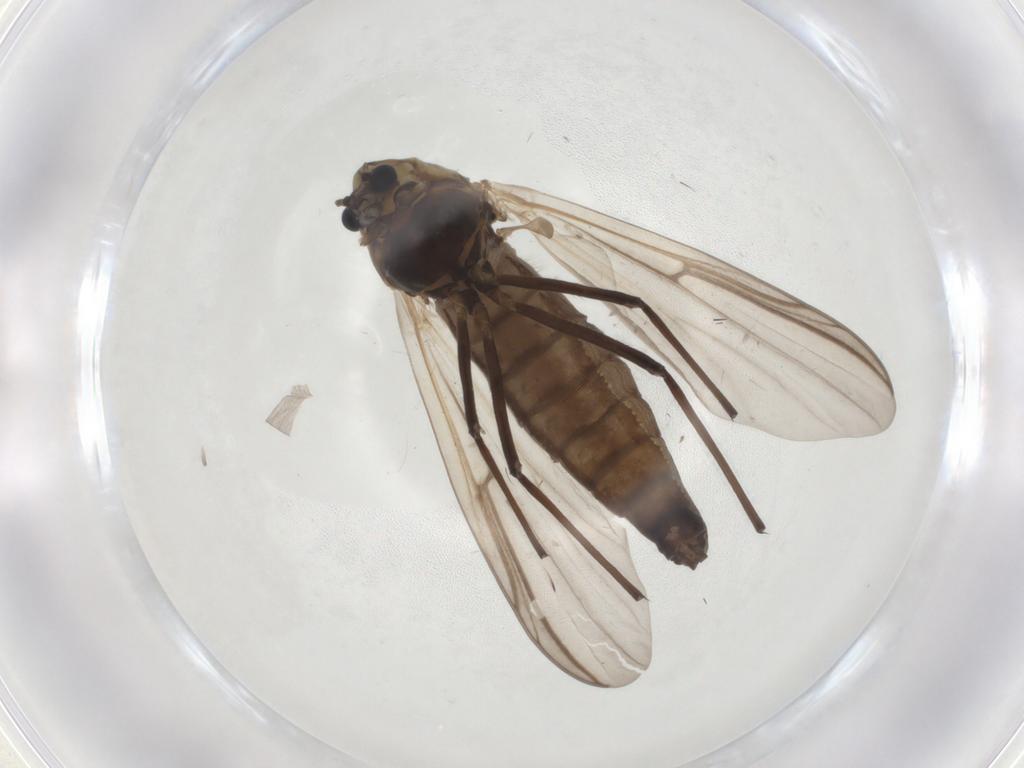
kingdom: Animalia
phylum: Arthropoda
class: Insecta
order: Diptera
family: Chironomidae
